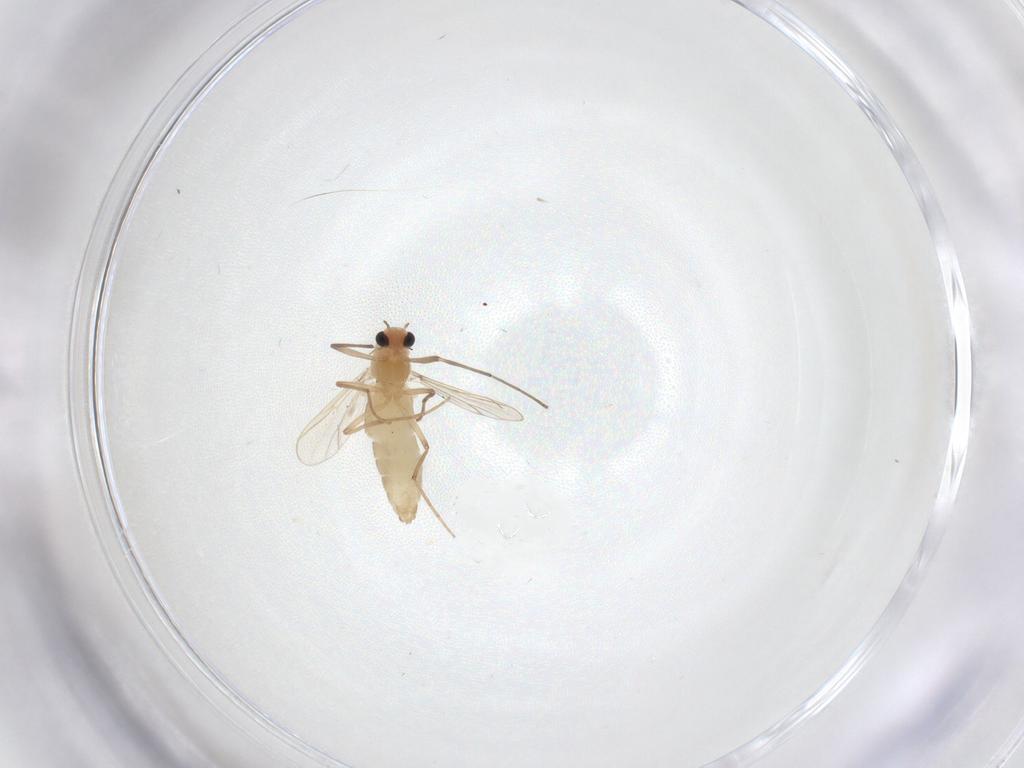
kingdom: Animalia
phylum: Arthropoda
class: Insecta
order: Diptera
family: Chironomidae
